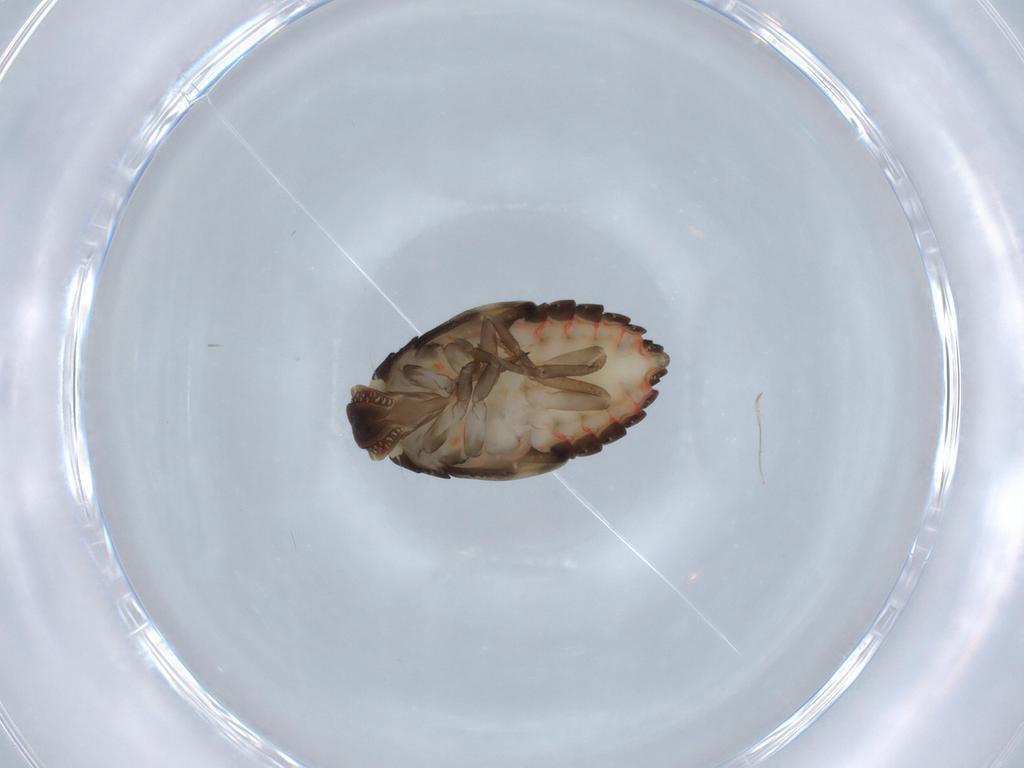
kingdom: Animalia
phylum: Arthropoda
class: Insecta
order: Hemiptera
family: Derbidae
